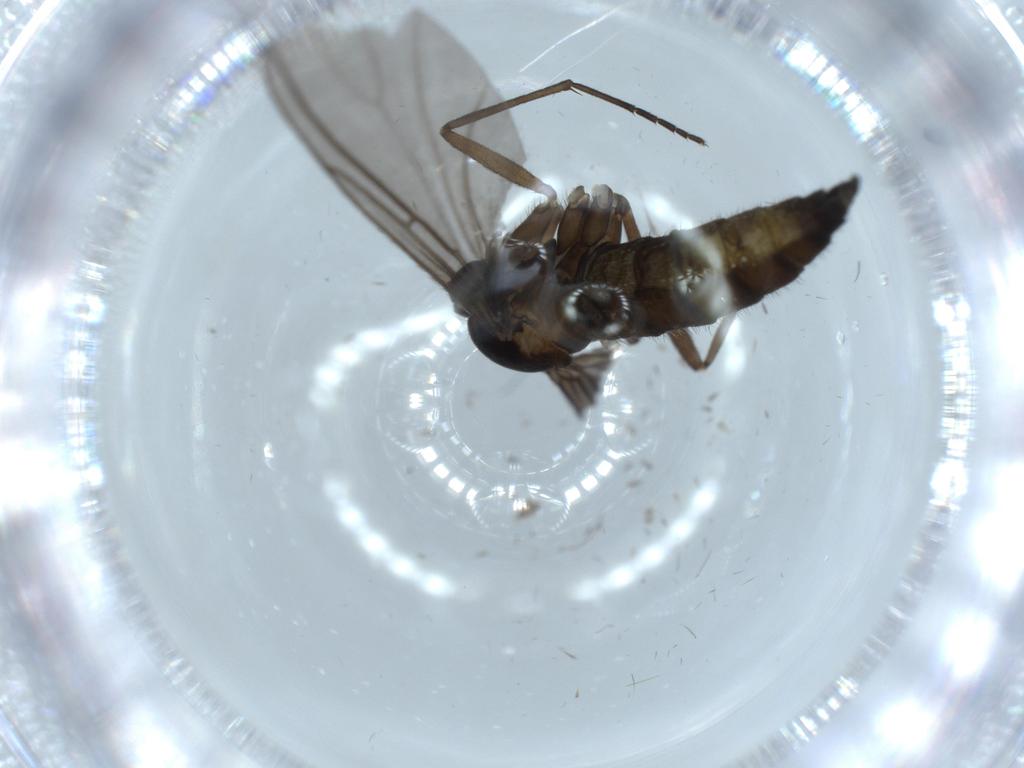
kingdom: Animalia
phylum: Arthropoda
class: Insecta
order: Diptera
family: Sciaridae
